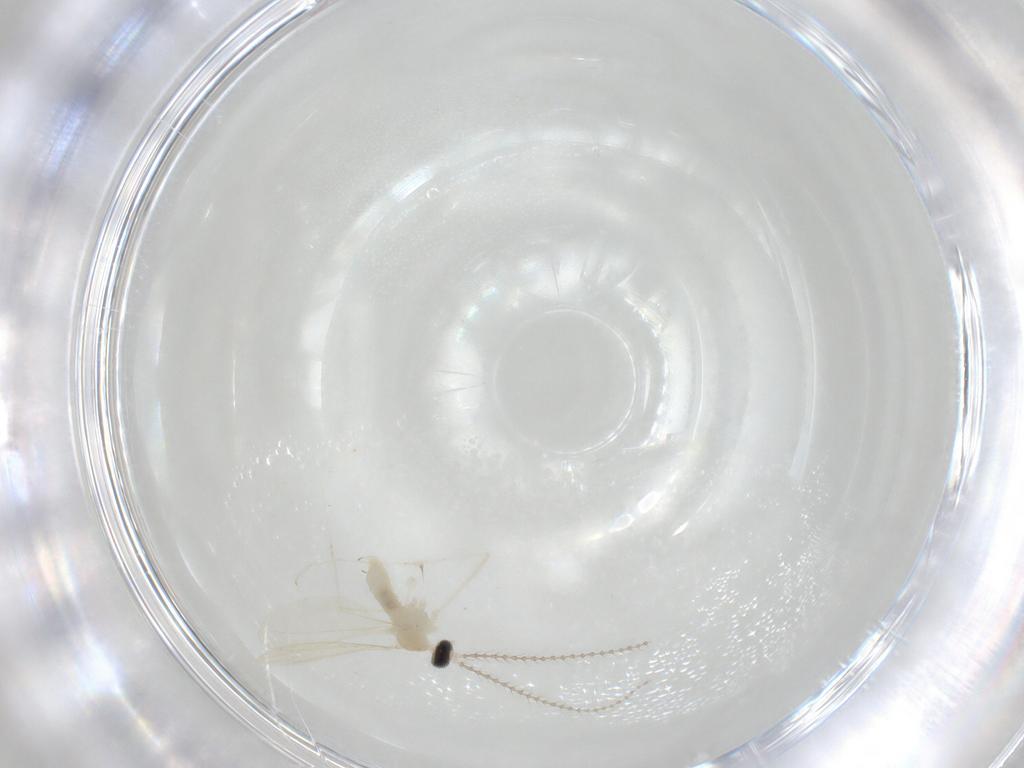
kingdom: Animalia
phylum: Arthropoda
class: Insecta
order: Diptera
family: Cecidomyiidae
